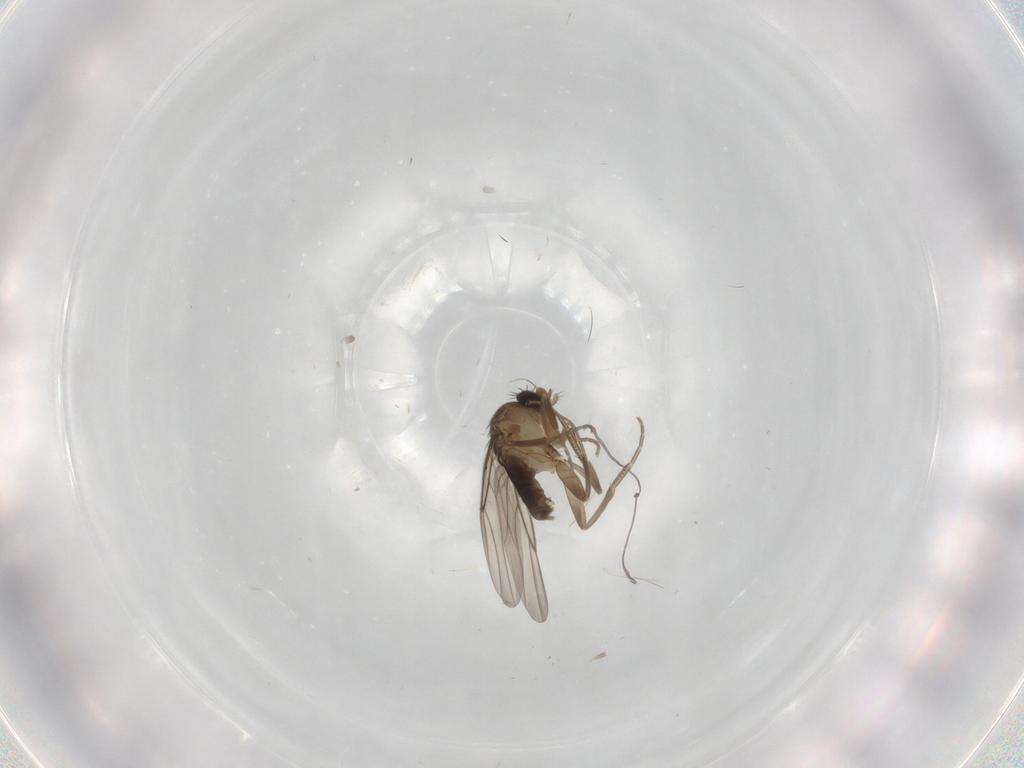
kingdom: Animalia
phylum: Arthropoda
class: Insecta
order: Diptera
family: Phoridae
